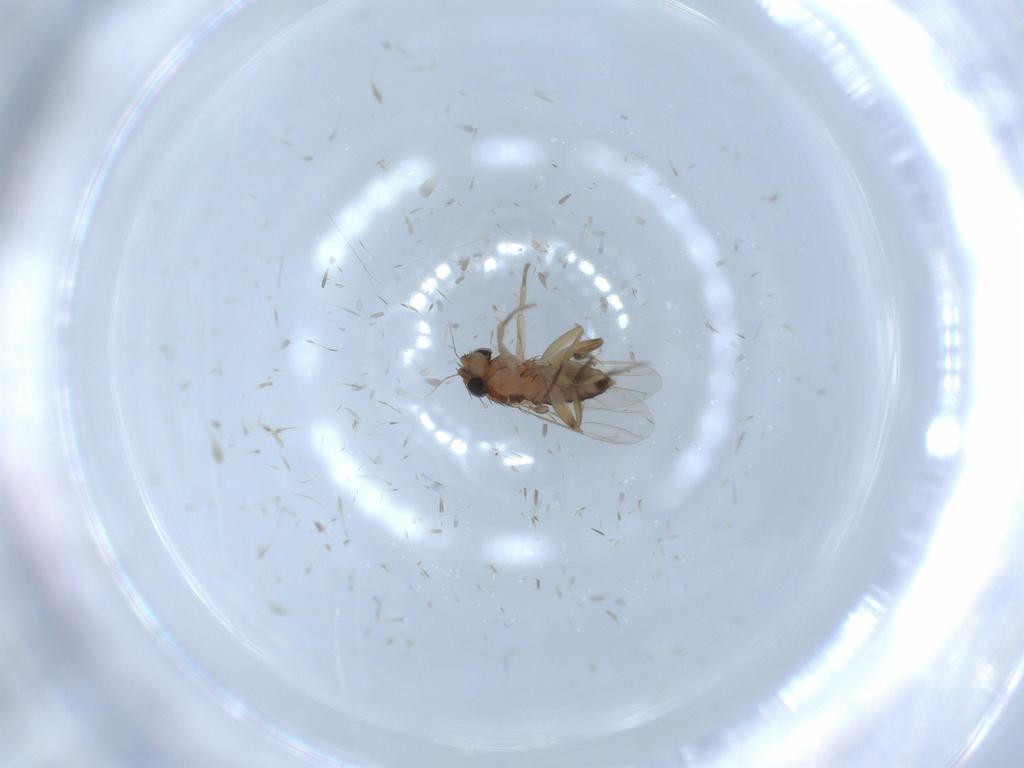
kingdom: Animalia
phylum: Arthropoda
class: Insecta
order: Diptera
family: Phoridae
